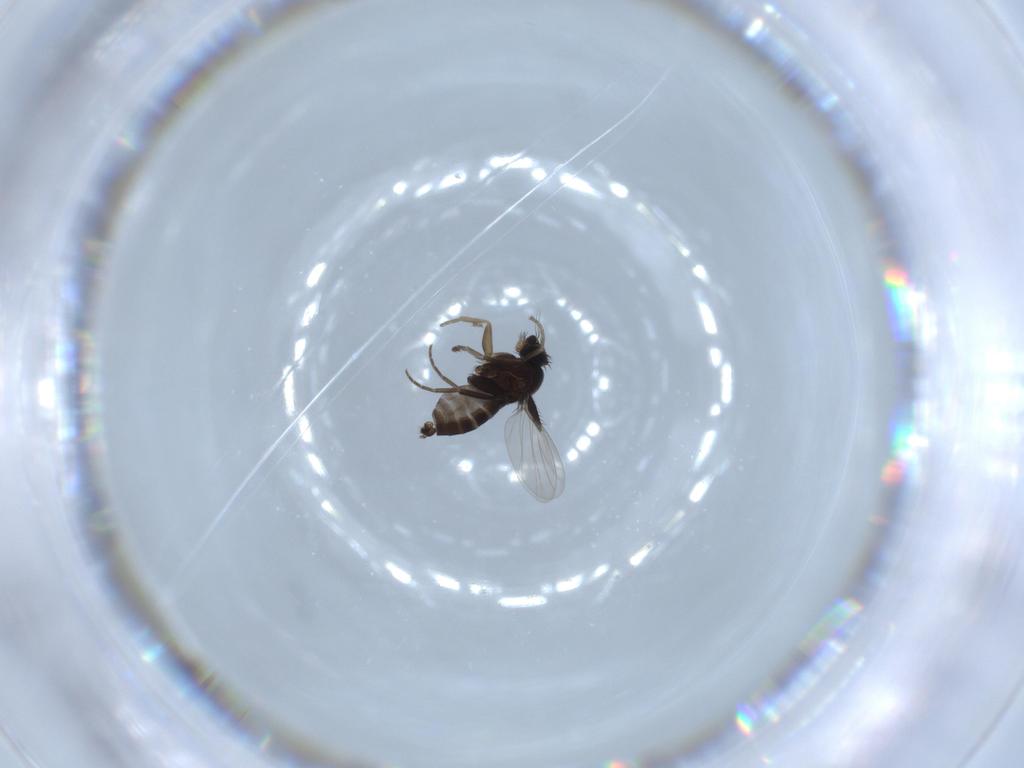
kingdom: Animalia
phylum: Arthropoda
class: Insecta
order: Diptera
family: Phoridae
